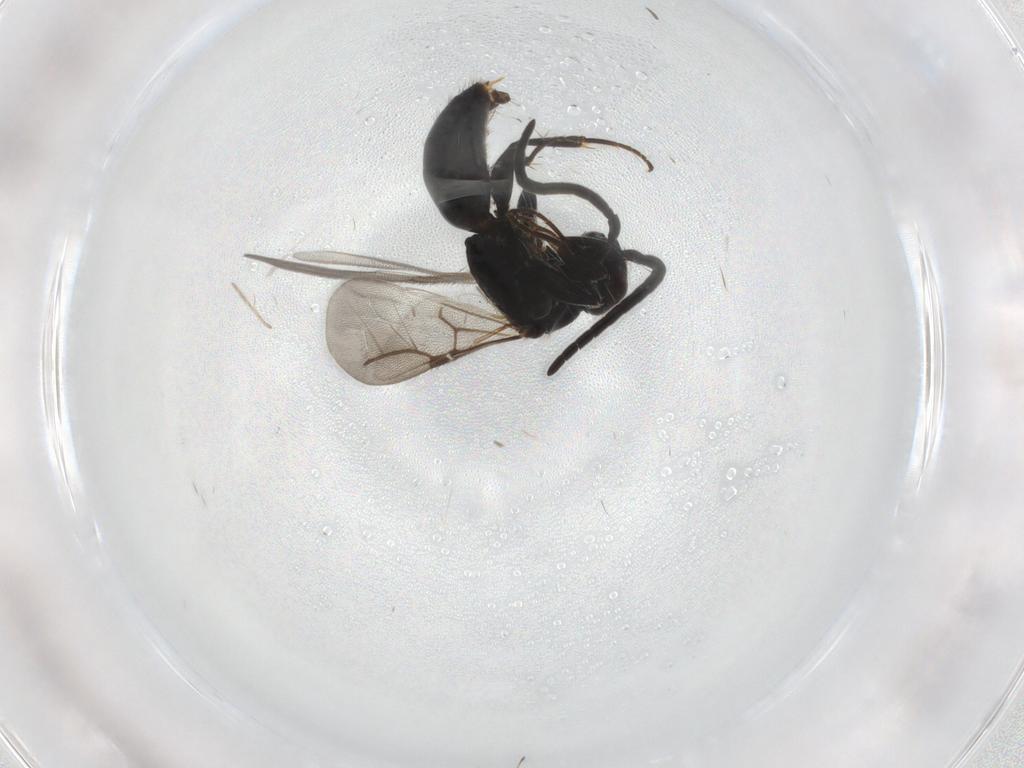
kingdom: Animalia
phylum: Arthropoda
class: Insecta
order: Hymenoptera
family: Bethylidae
